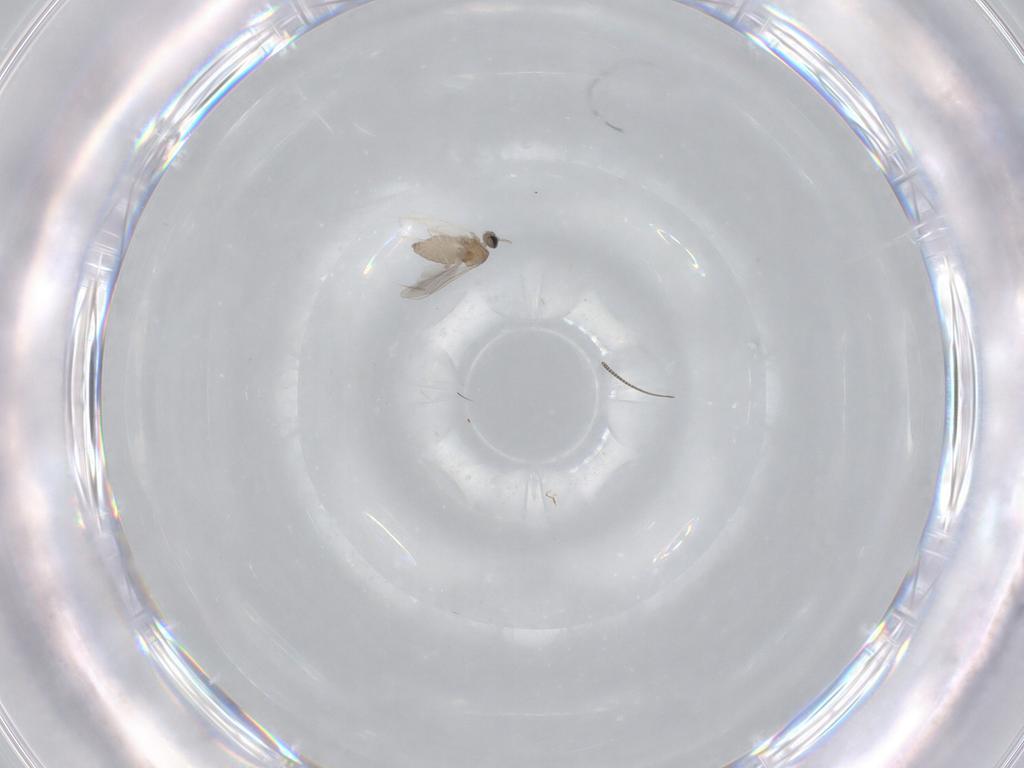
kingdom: Animalia
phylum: Arthropoda
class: Insecta
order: Diptera
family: Cecidomyiidae
